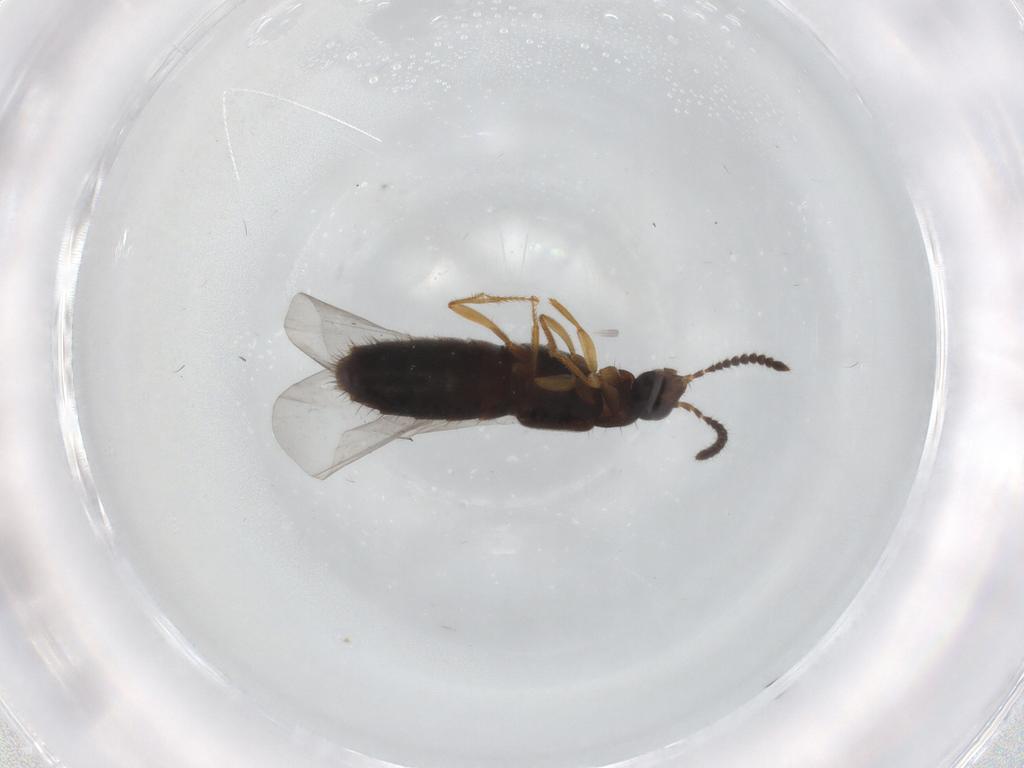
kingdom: Animalia
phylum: Arthropoda
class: Insecta
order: Coleoptera
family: Staphylinidae
